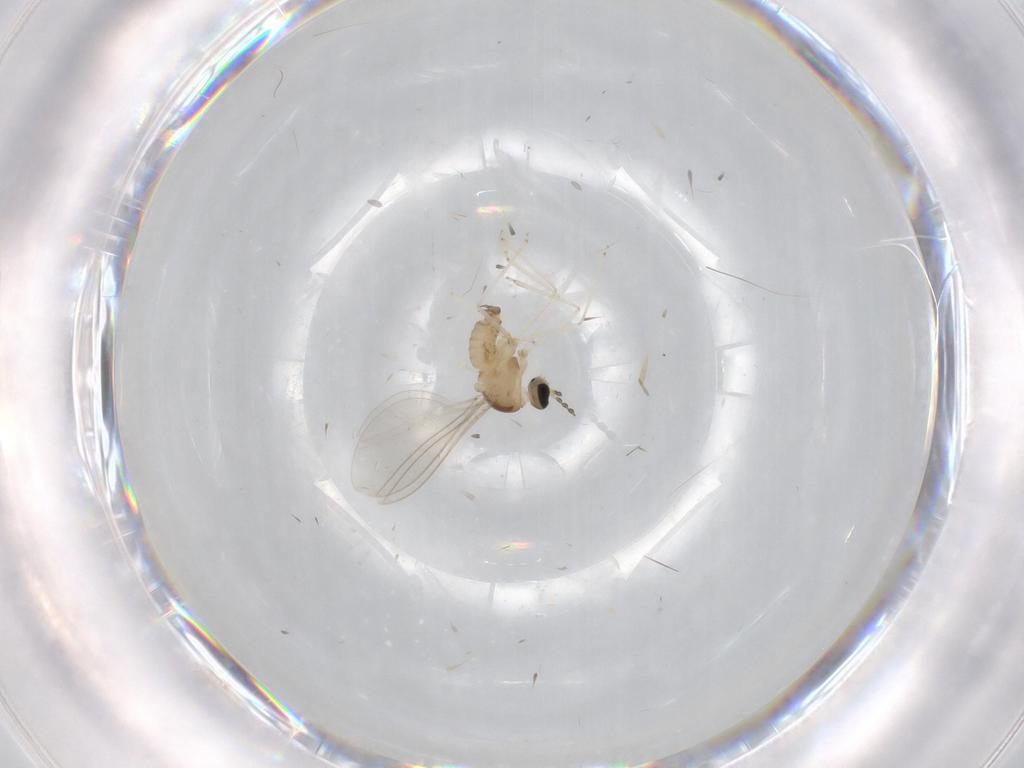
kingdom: Animalia
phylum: Arthropoda
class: Insecta
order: Diptera
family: Cecidomyiidae
